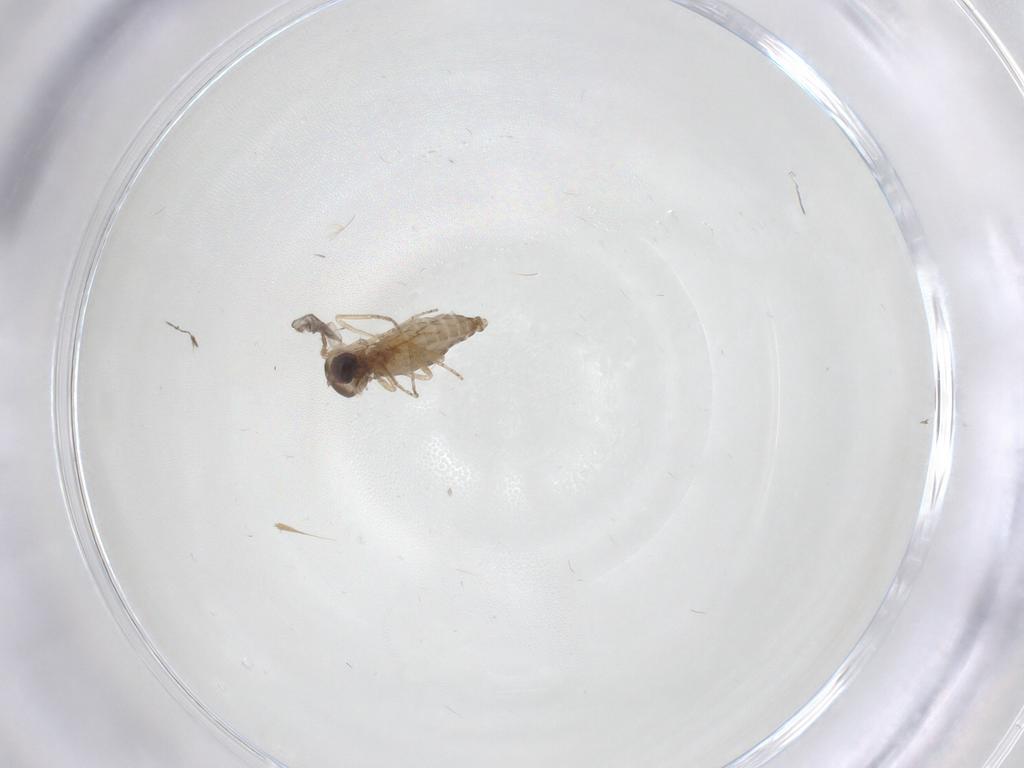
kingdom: Animalia
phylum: Arthropoda
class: Insecta
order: Diptera
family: Ceratopogonidae
